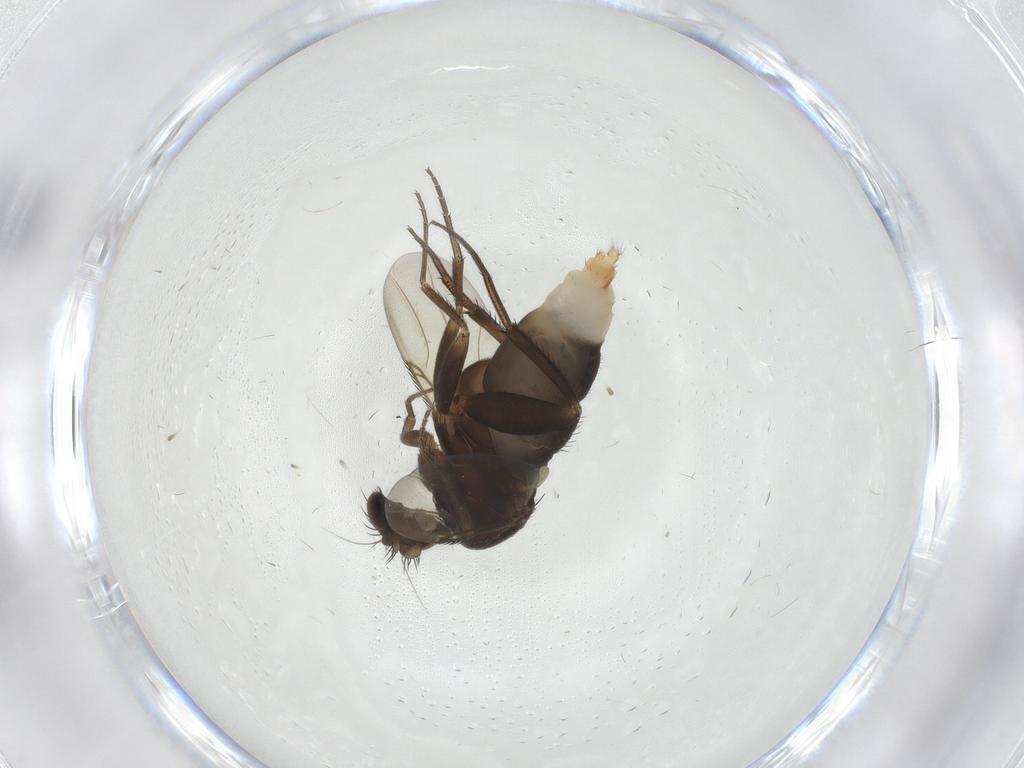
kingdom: Animalia
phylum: Arthropoda
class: Insecta
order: Diptera
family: Phoridae
